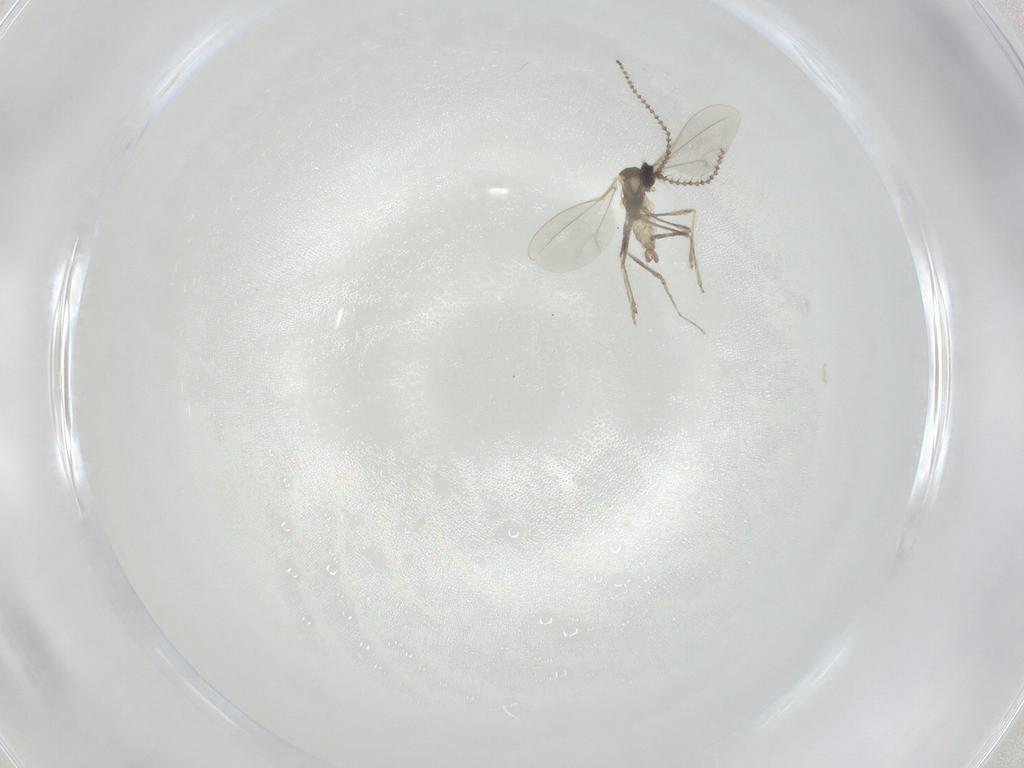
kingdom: Animalia
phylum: Arthropoda
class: Insecta
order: Diptera
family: Cecidomyiidae
